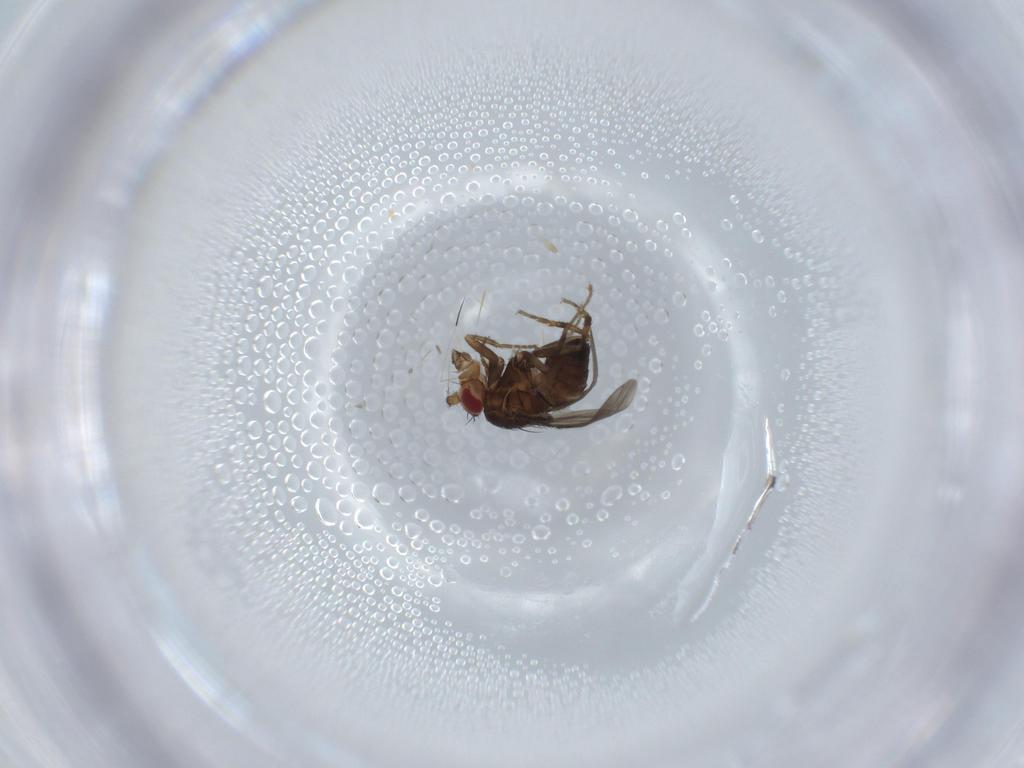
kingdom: Animalia
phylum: Arthropoda
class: Insecta
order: Diptera
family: Cecidomyiidae
